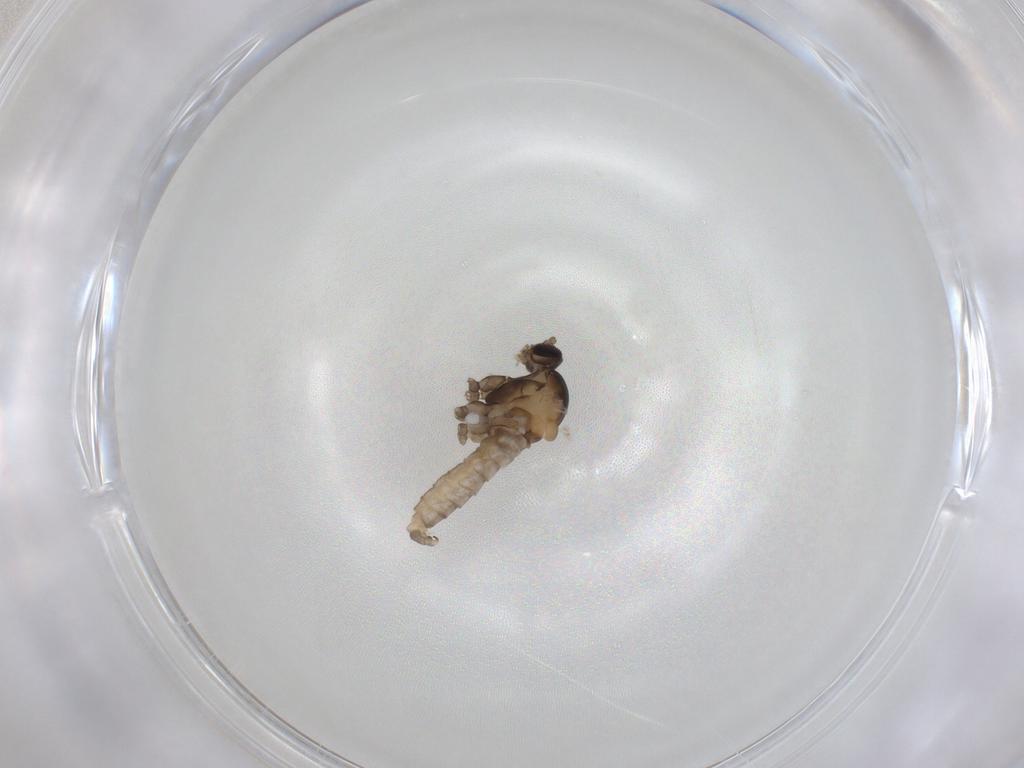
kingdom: Animalia
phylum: Arthropoda
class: Insecta
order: Diptera
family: Cecidomyiidae
